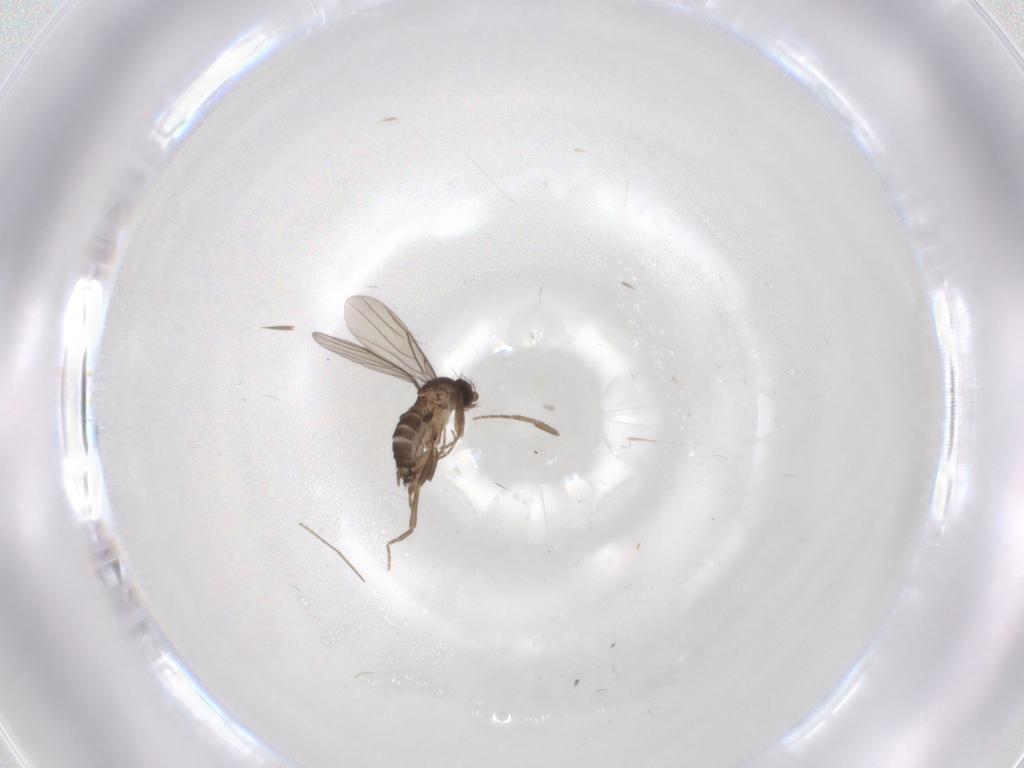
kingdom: Animalia
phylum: Arthropoda
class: Insecta
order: Diptera
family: Phoridae
